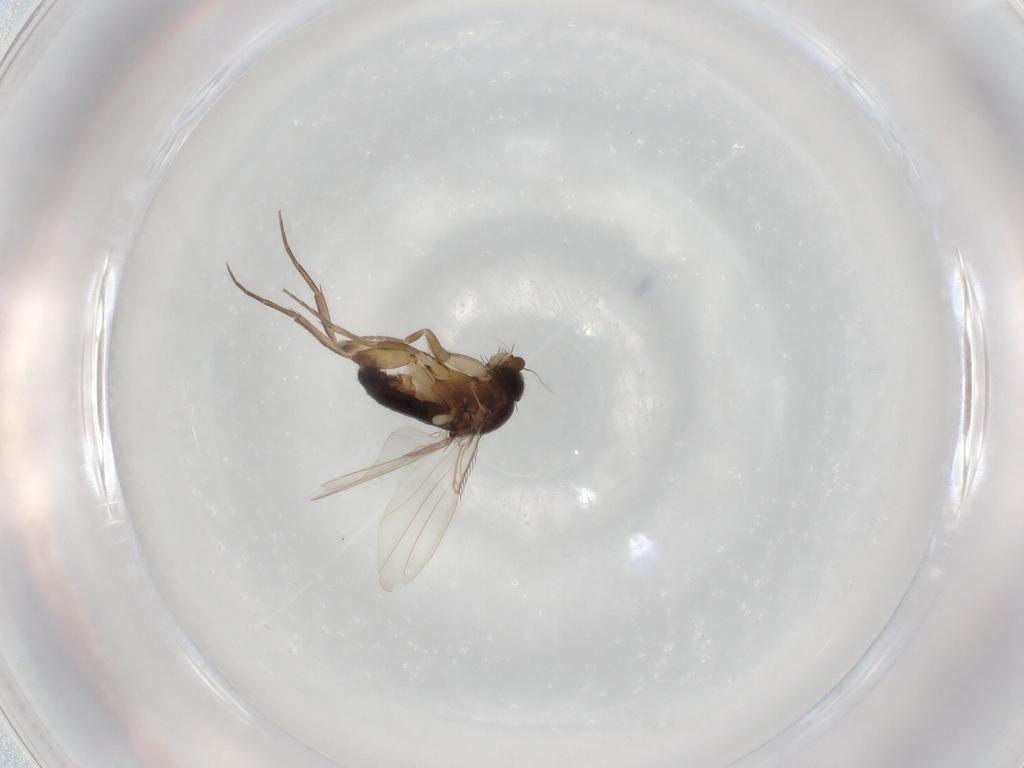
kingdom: Animalia
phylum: Arthropoda
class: Insecta
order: Diptera
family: Phoridae
